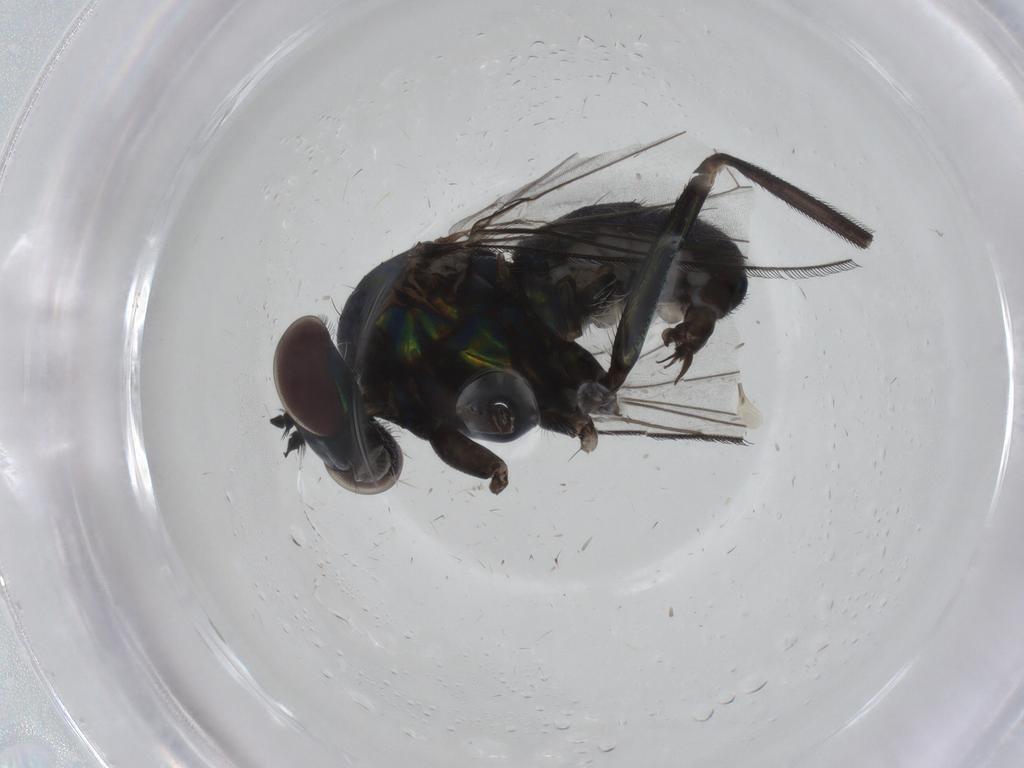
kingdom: Animalia
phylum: Arthropoda
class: Insecta
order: Diptera
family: Dolichopodidae
